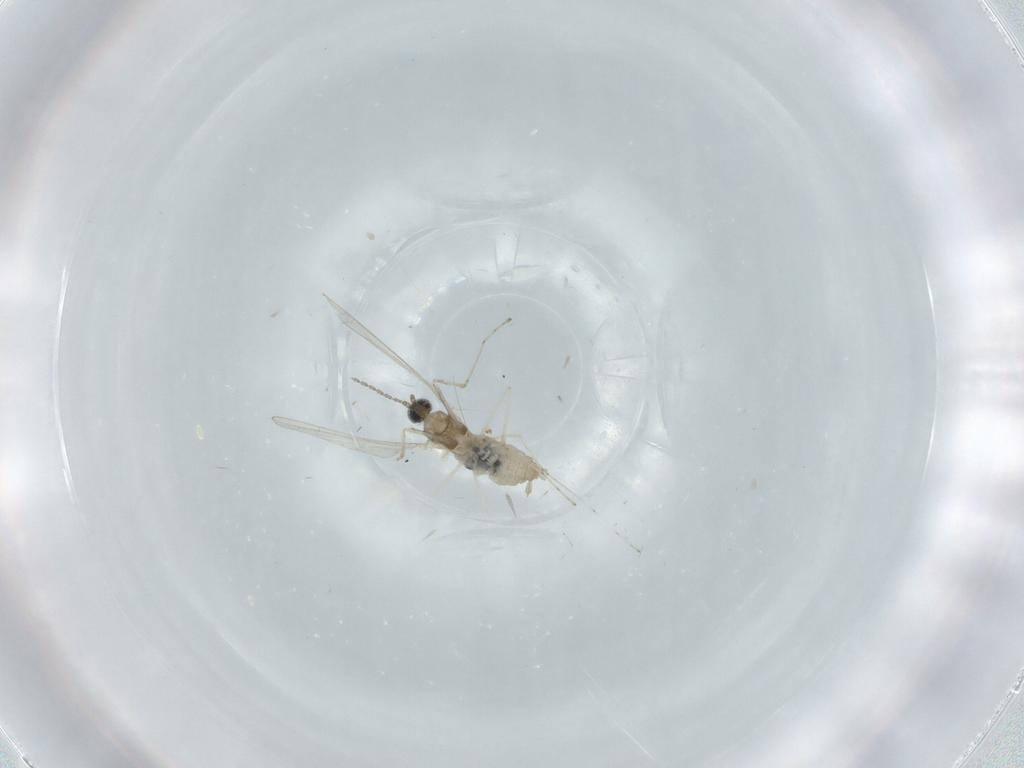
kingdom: Animalia
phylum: Arthropoda
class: Insecta
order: Diptera
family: Cecidomyiidae
